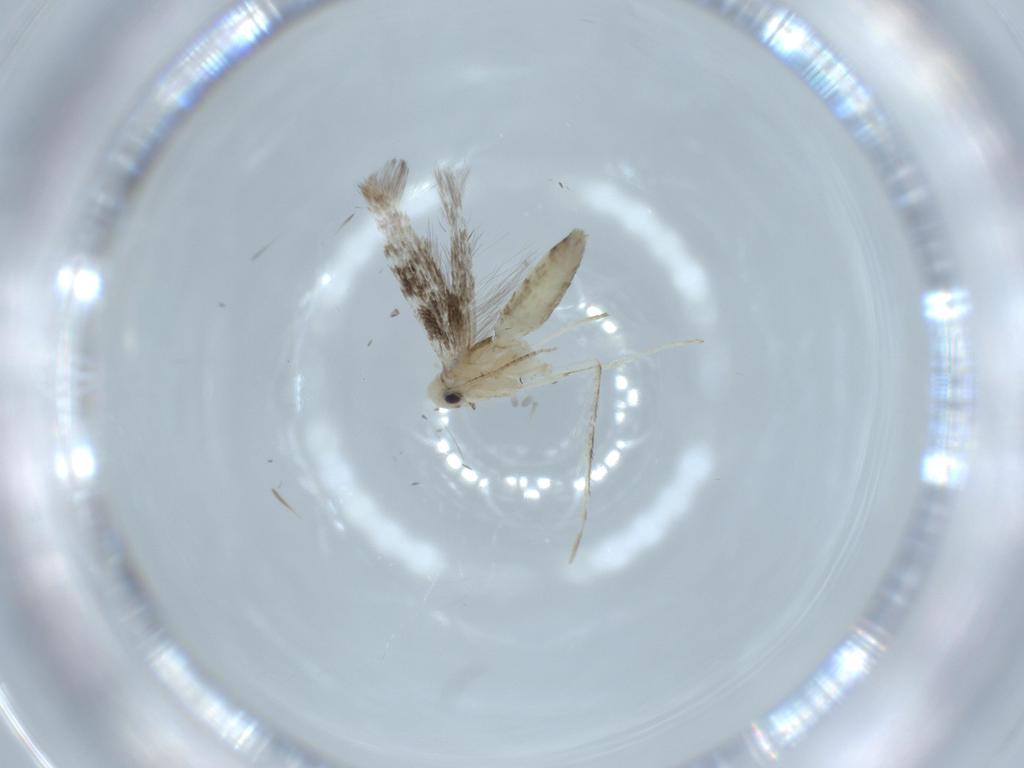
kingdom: Animalia
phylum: Arthropoda
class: Insecta
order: Lepidoptera
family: Nepticulidae
